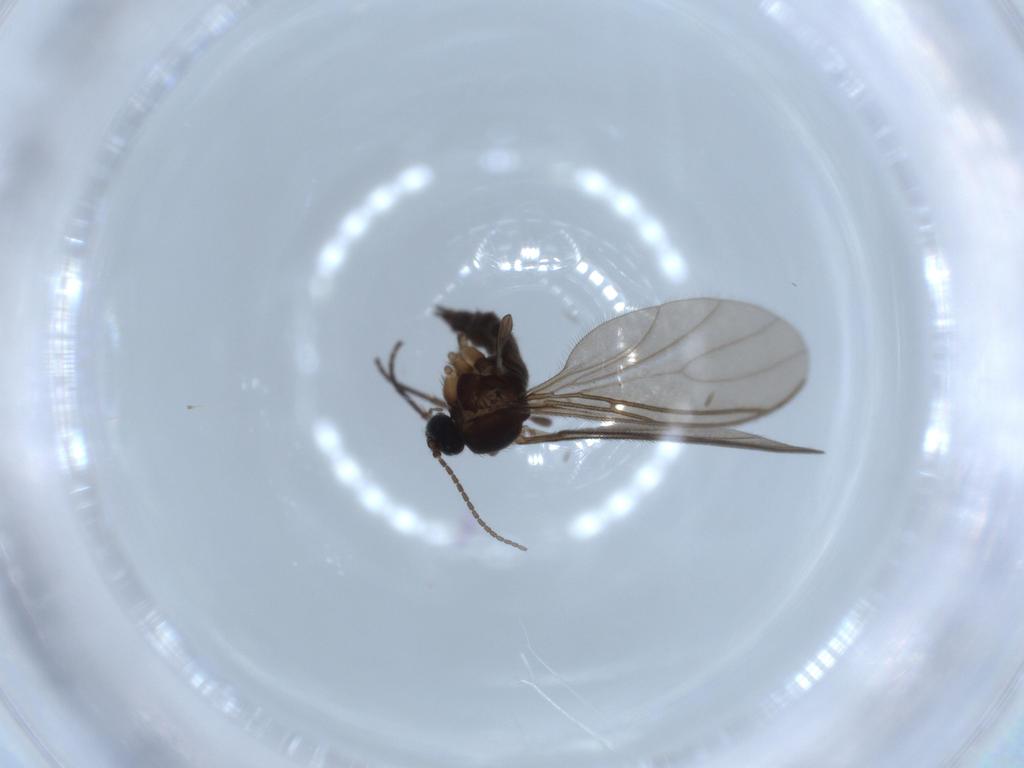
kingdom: Animalia
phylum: Arthropoda
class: Insecta
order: Diptera
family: Sciaridae
